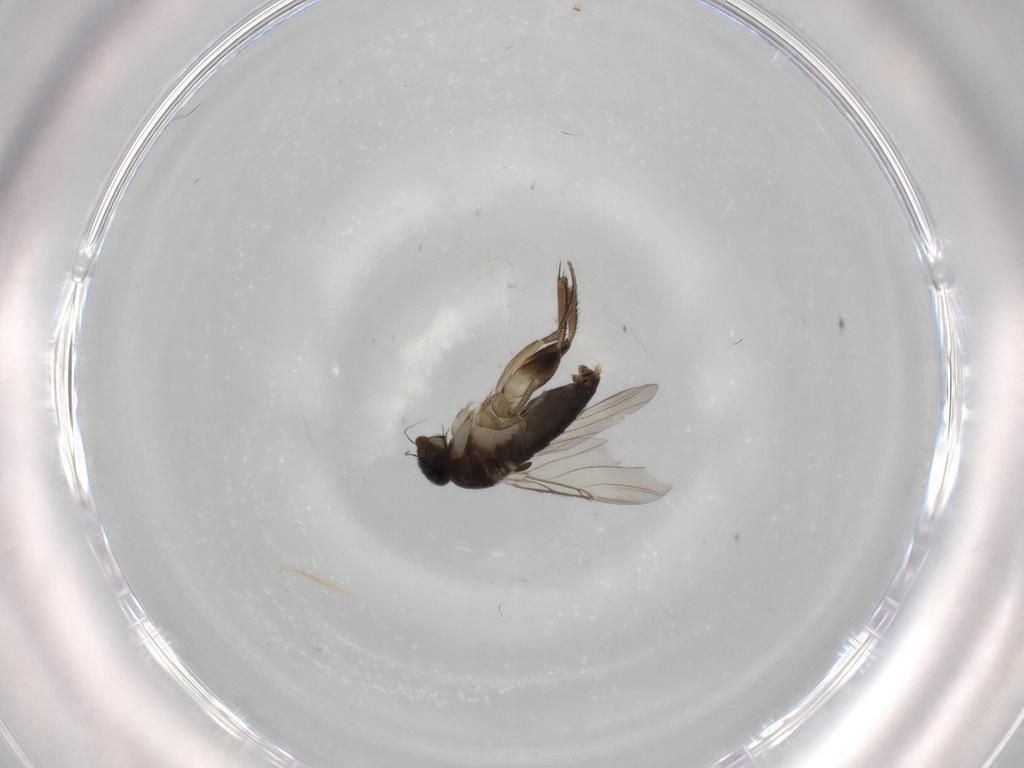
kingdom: Animalia
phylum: Arthropoda
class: Insecta
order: Diptera
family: Phoridae
